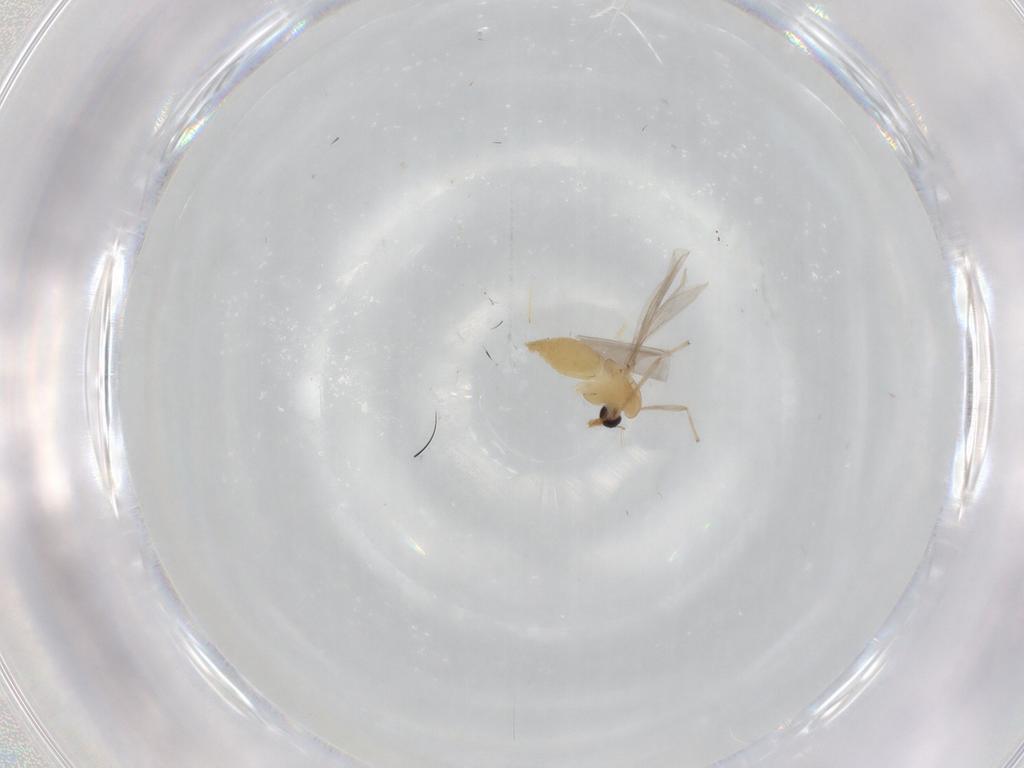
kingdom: Animalia
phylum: Arthropoda
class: Insecta
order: Diptera
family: Chironomidae
